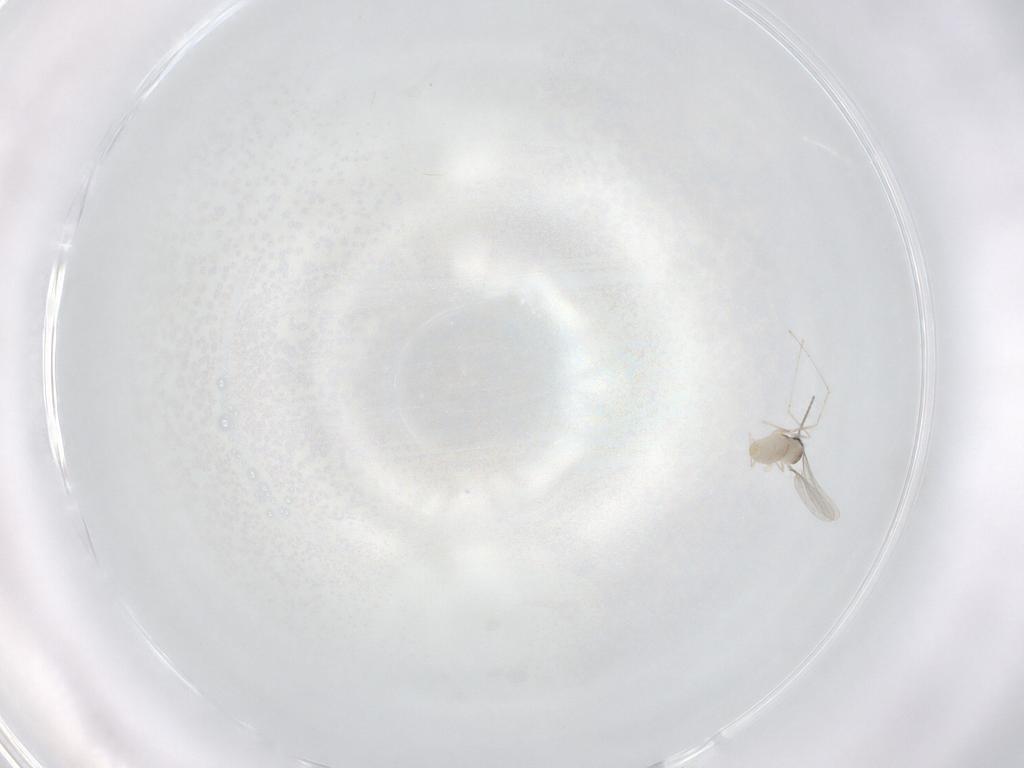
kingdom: Animalia
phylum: Arthropoda
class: Insecta
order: Diptera
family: Cecidomyiidae
